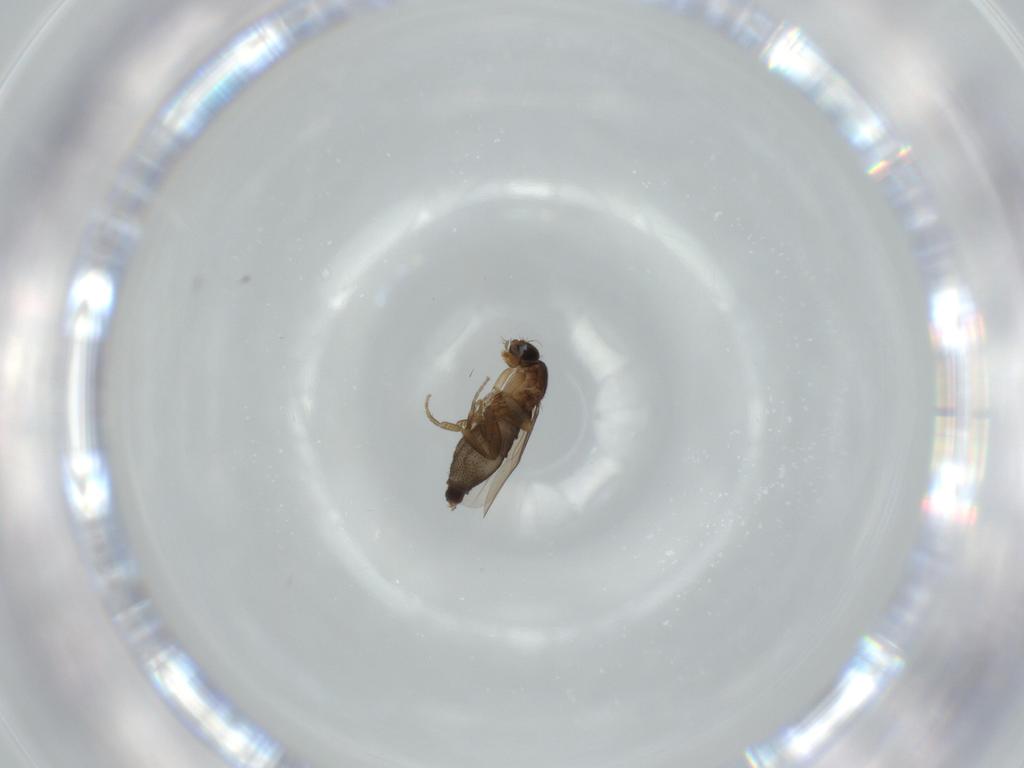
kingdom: Animalia
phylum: Arthropoda
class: Insecta
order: Diptera
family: Phoridae
